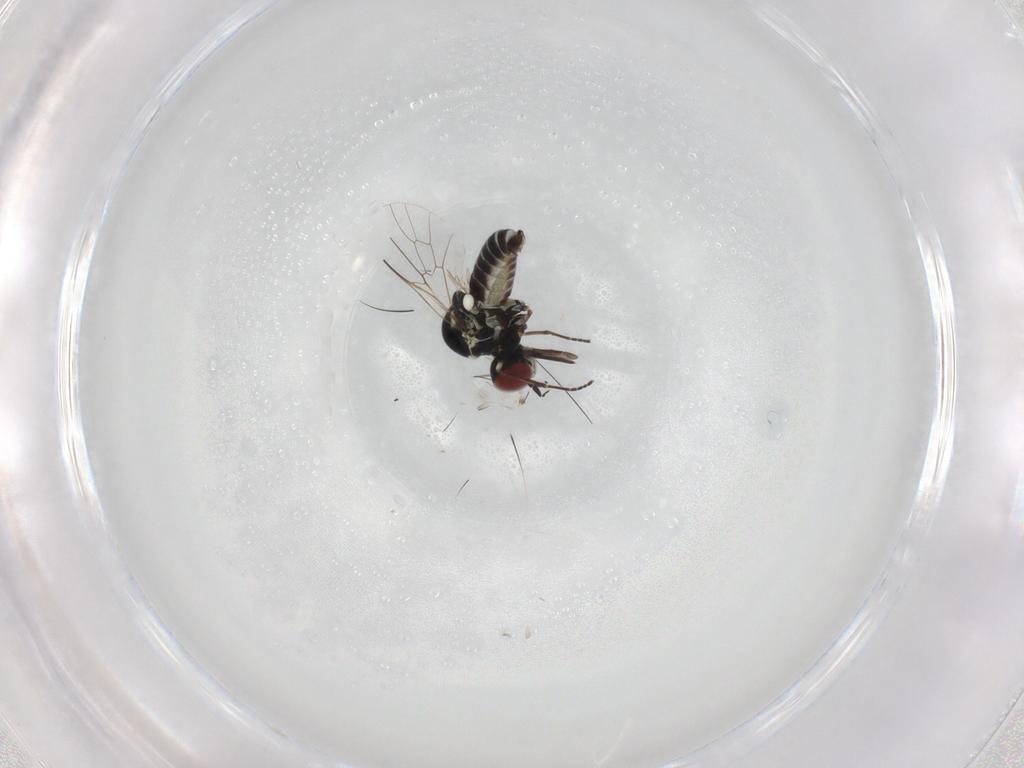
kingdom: Animalia
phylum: Arthropoda
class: Insecta
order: Diptera
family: Bombyliidae
